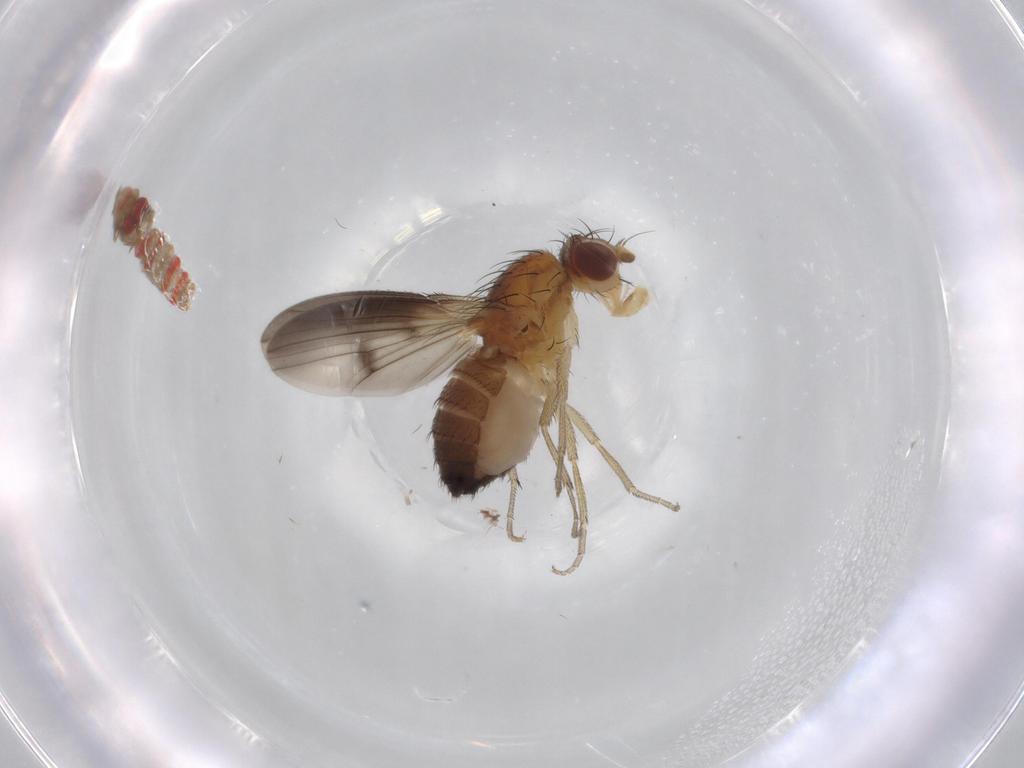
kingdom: Animalia
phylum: Arthropoda
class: Insecta
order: Diptera
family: Heleomyzidae
